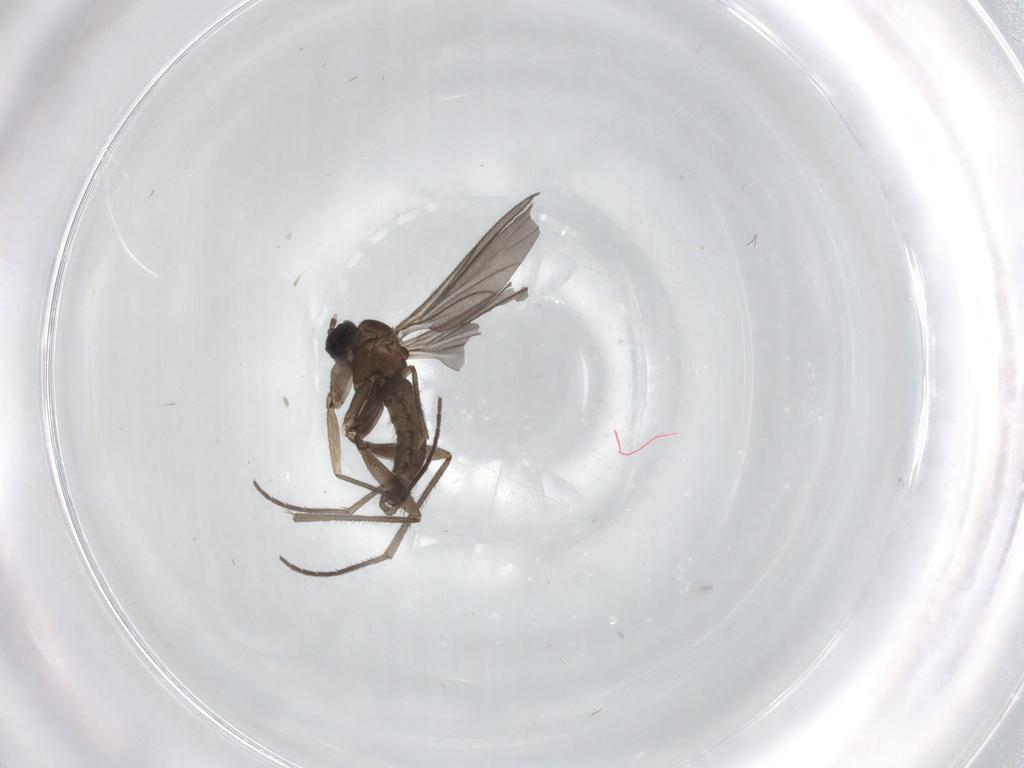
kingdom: Animalia
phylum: Arthropoda
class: Insecta
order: Diptera
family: Sciaridae
